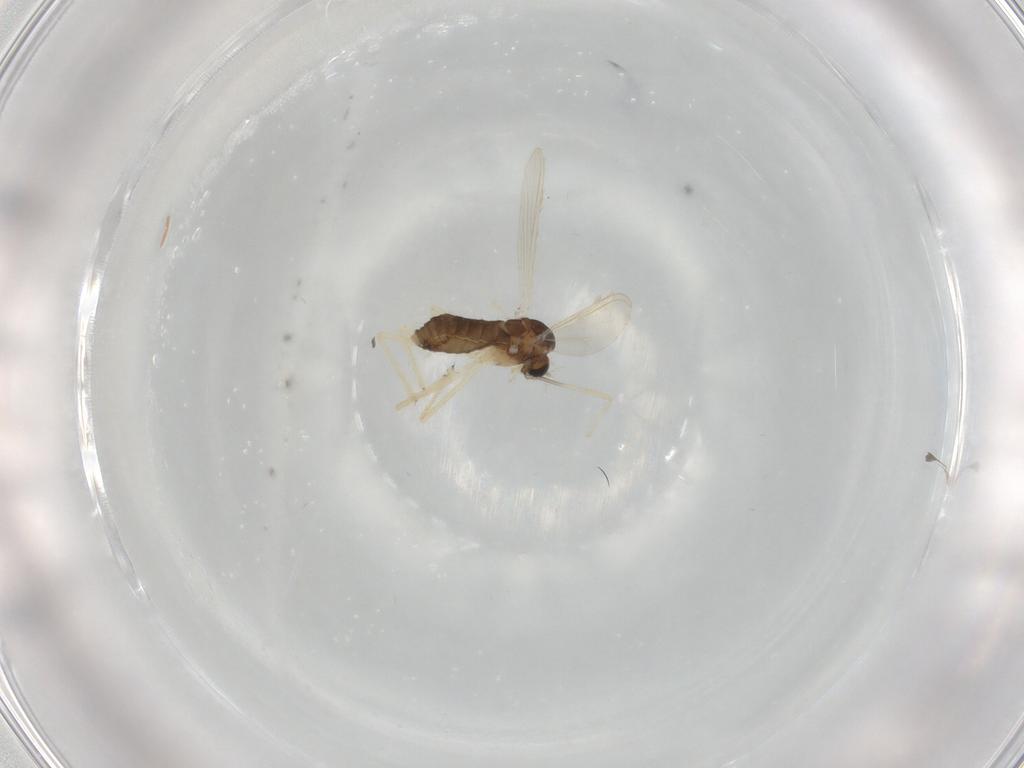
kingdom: Animalia
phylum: Arthropoda
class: Insecta
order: Diptera
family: Chironomidae
